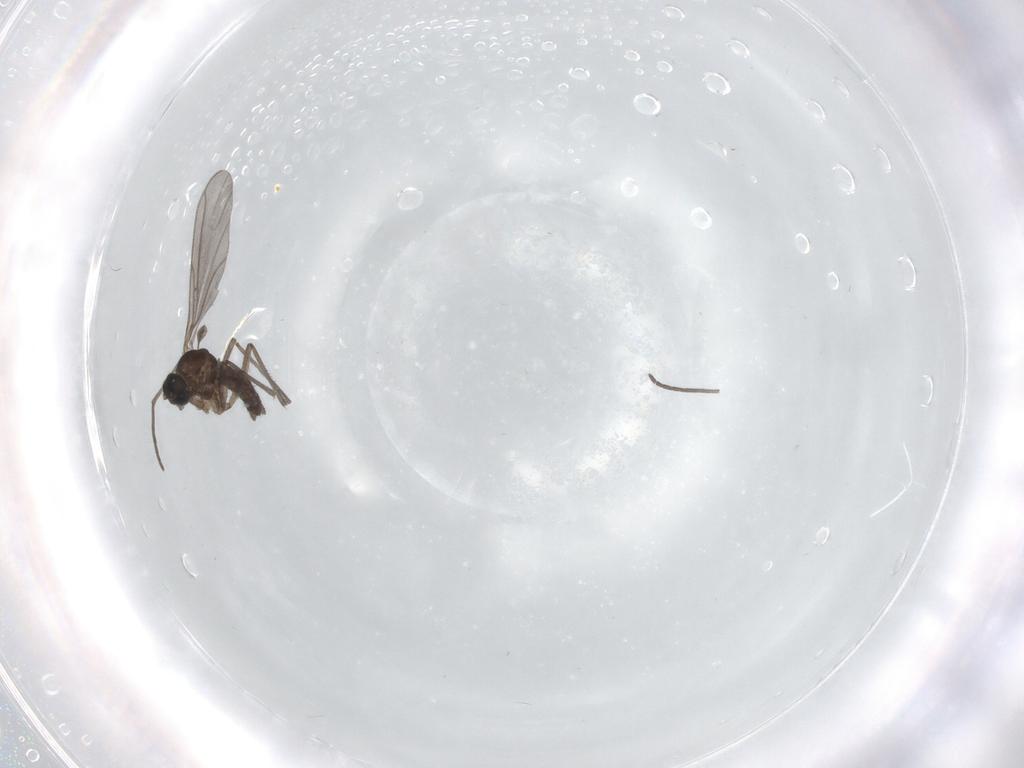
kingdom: Animalia
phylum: Arthropoda
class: Insecta
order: Diptera
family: Sciaridae
